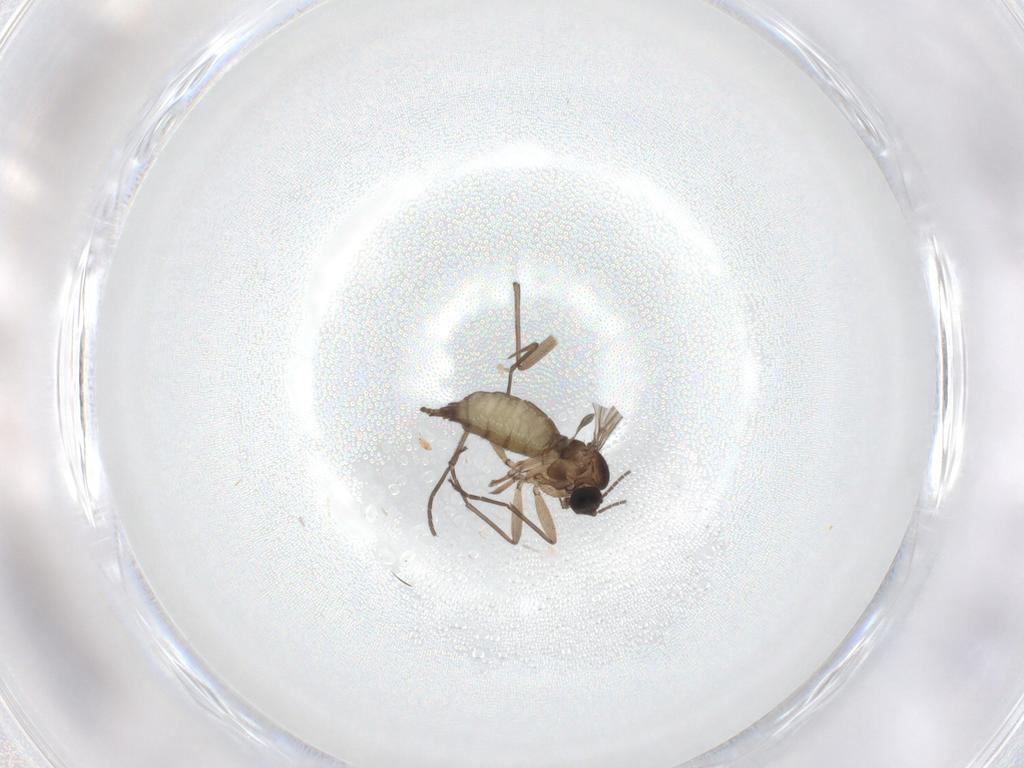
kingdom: Animalia
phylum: Arthropoda
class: Insecta
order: Diptera
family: Sciaridae
